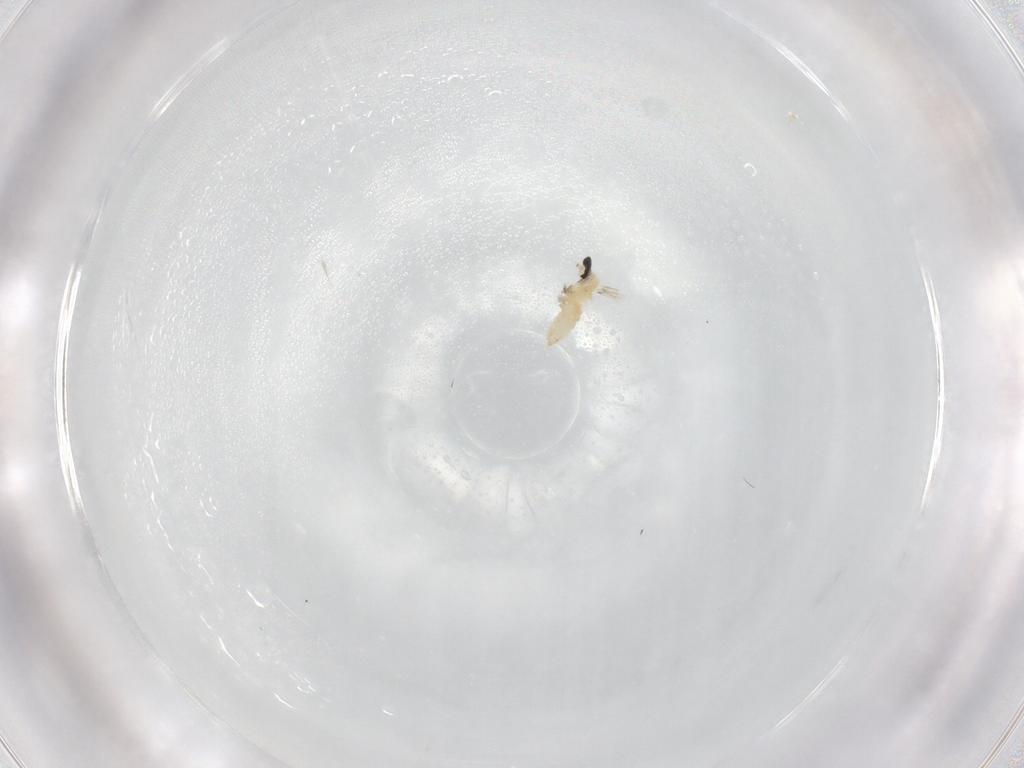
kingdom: Animalia
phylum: Arthropoda
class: Insecta
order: Diptera
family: Cecidomyiidae
